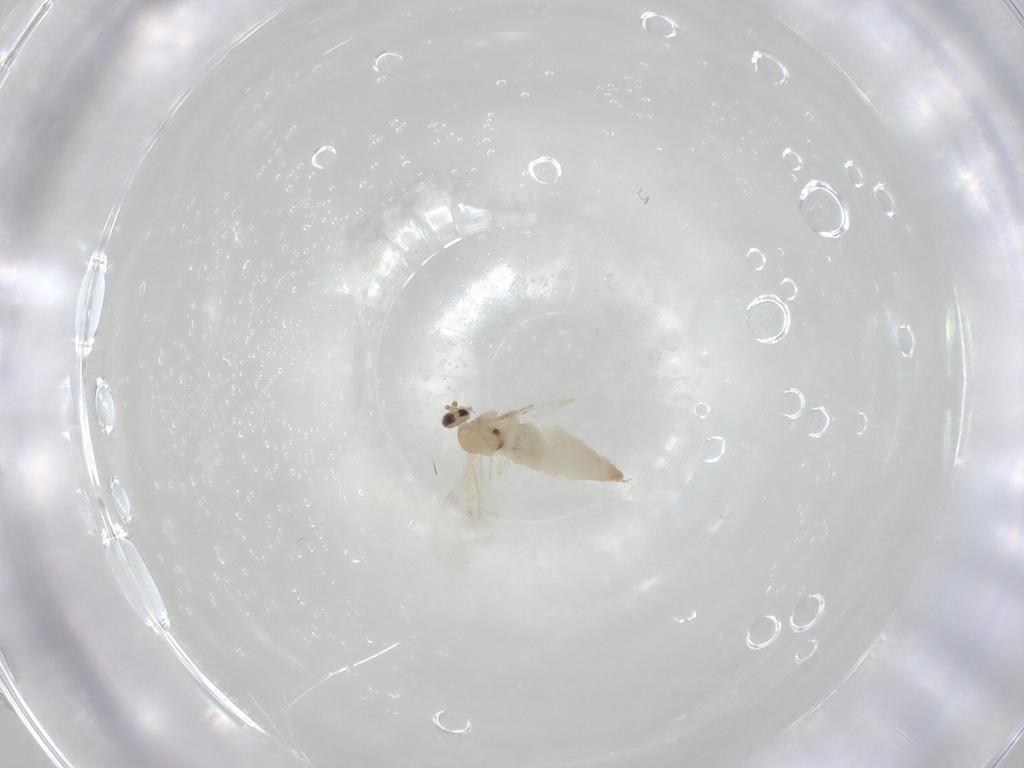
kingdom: Animalia
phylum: Arthropoda
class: Insecta
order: Diptera
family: Cecidomyiidae
